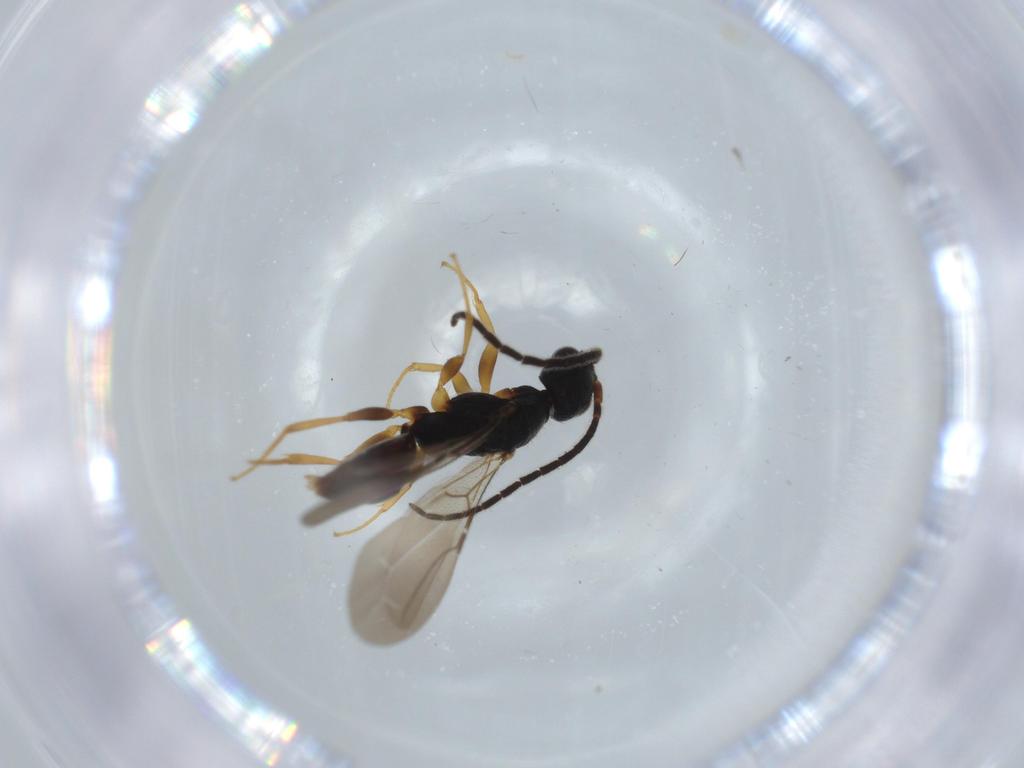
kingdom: Animalia
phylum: Arthropoda
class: Insecta
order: Hymenoptera
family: Bethylidae
